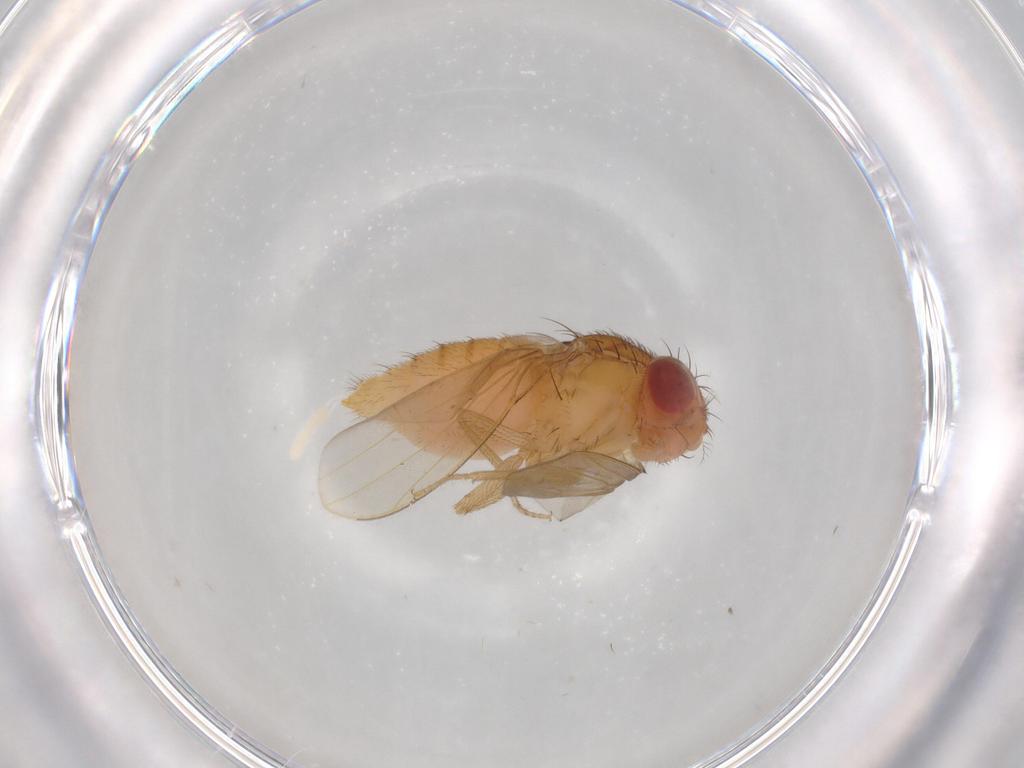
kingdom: Animalia
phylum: Arthropoda
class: Insecta
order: Diptera
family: Drosophilidae
